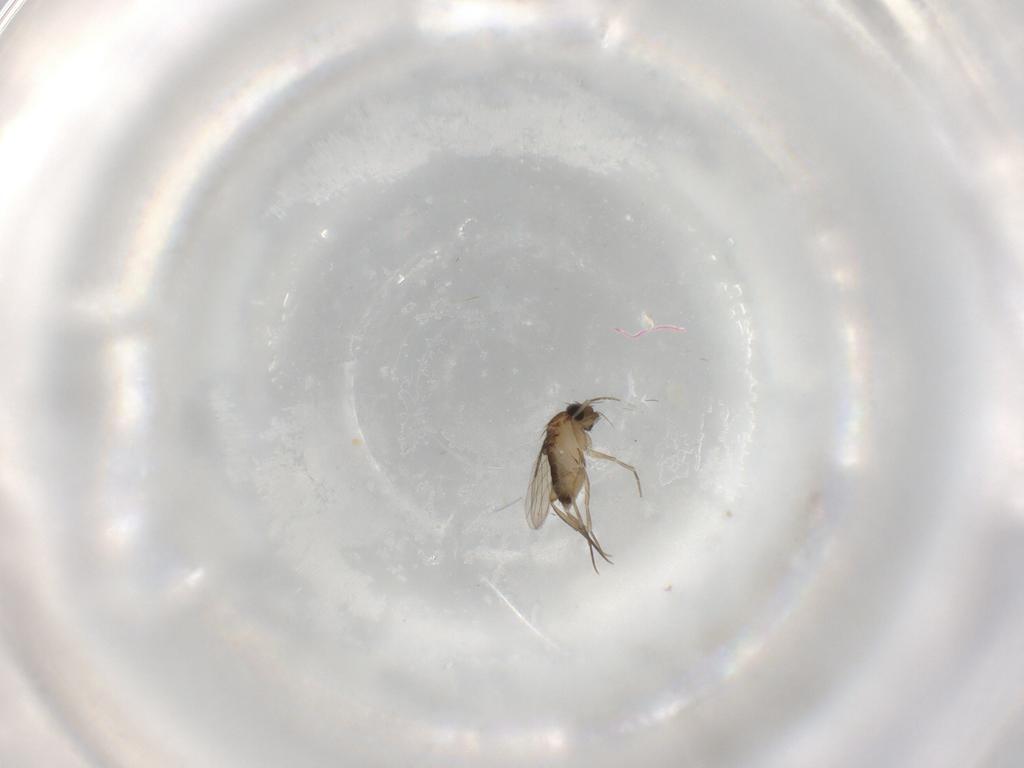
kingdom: Animalia
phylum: Arthropoda
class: Insecta
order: Diptera
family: Phoridae
